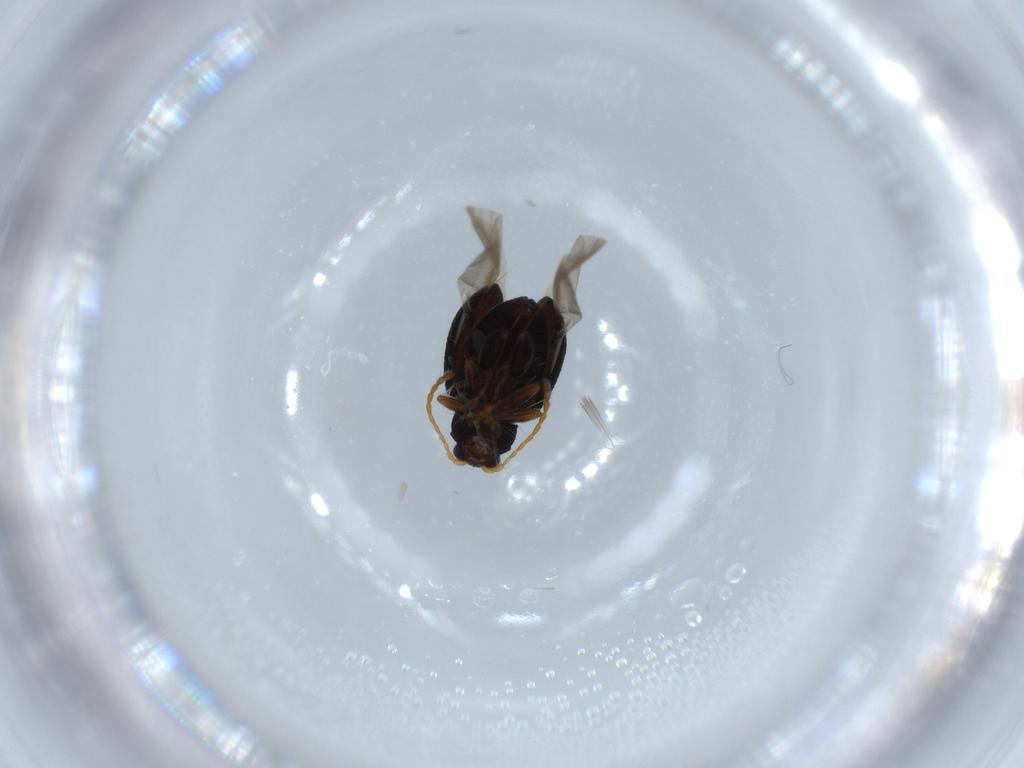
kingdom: Animalia
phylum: Arthropoda
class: Insecta
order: Coleoptera
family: Chrysomelidae
